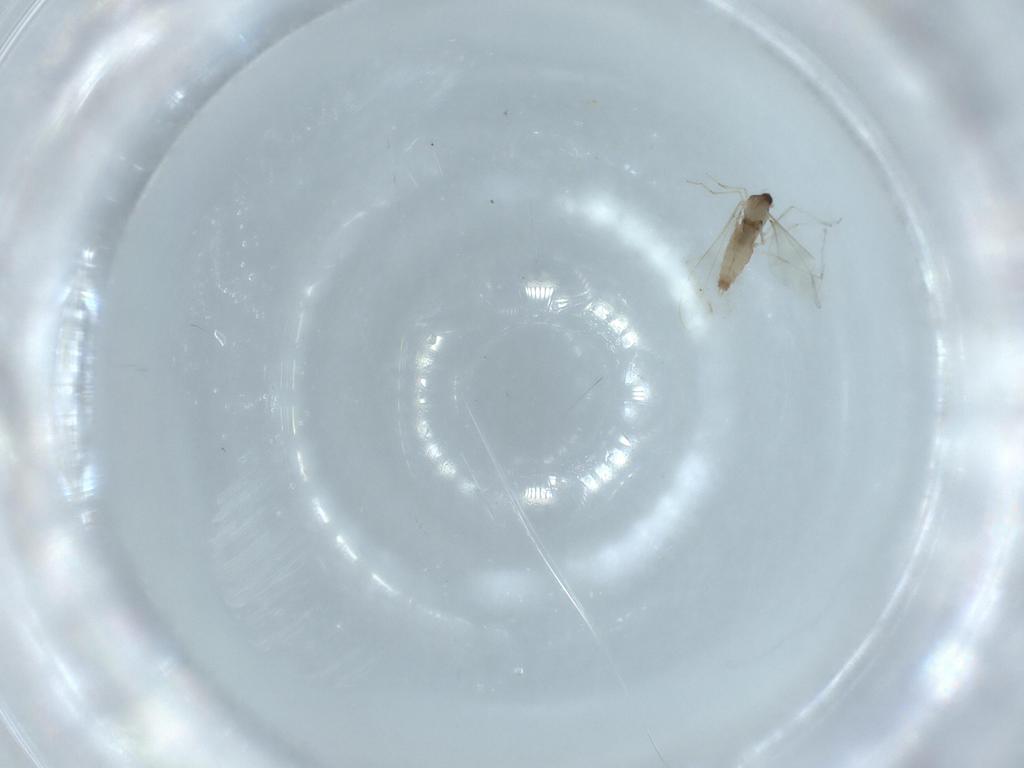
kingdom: Animalia
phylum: Arthropoda
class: Insecta
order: Diptera
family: Cecidomyiidae
